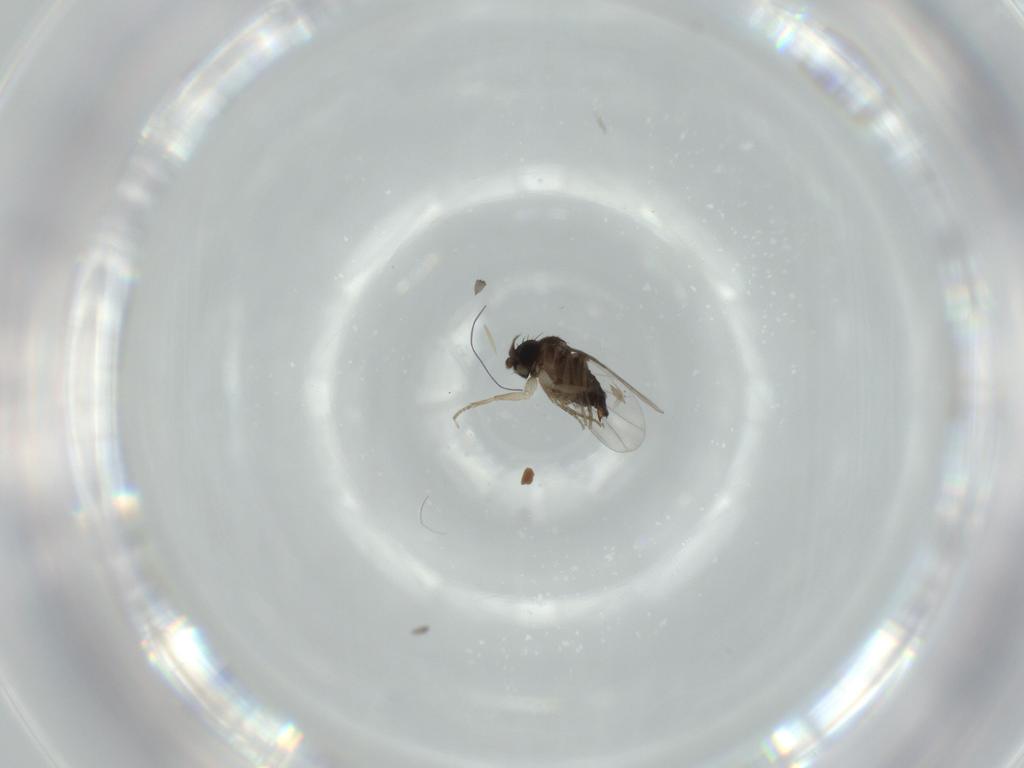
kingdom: Animalia
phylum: Arthropoda
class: Insecta
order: Diptera
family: Phoridae
